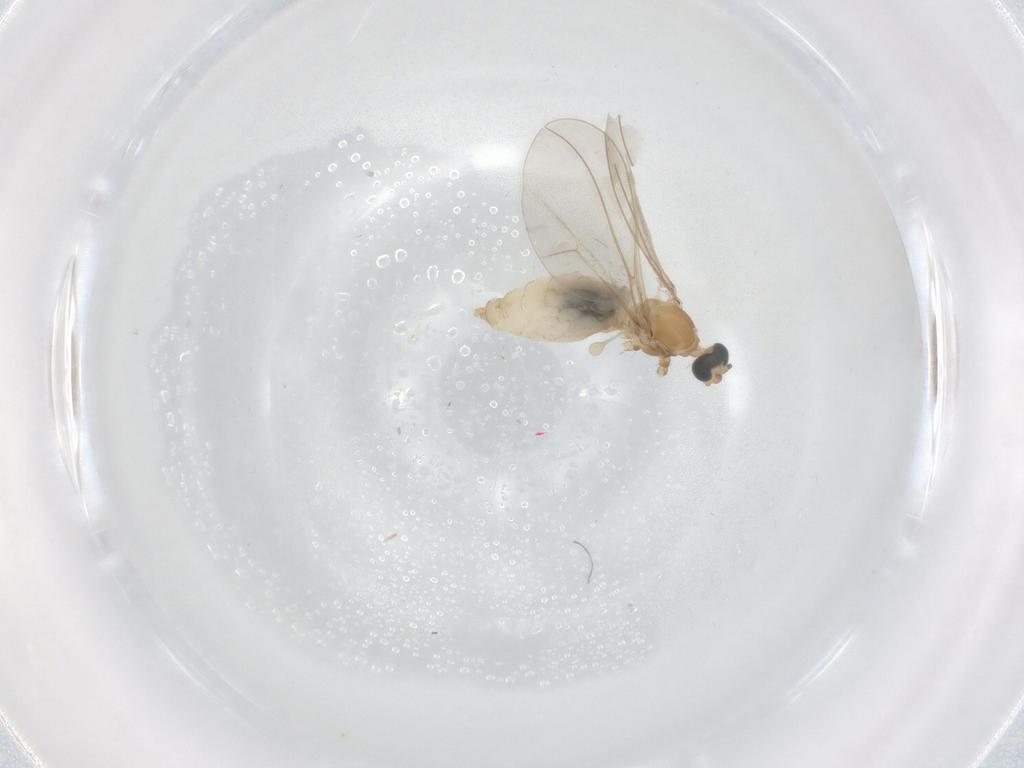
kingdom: Animalia
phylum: Arthropoda
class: Insecta
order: Diptera
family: Cecidomyiidae
